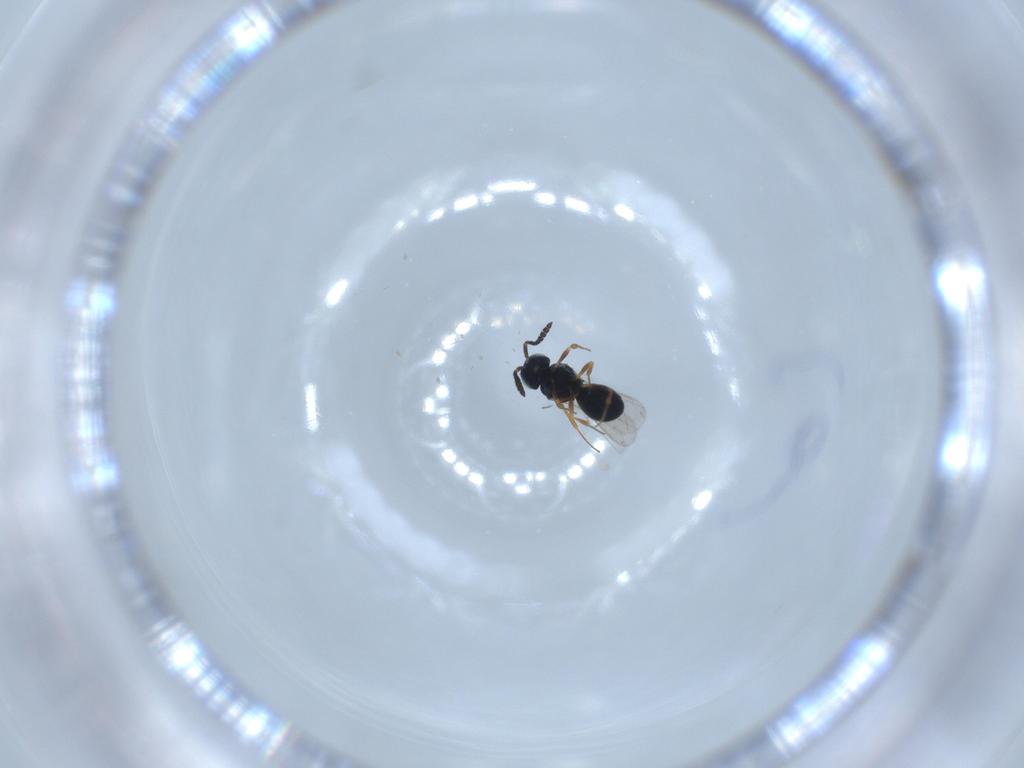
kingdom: Animalia
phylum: Arthropoda
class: Insecta
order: Hymenoptera
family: Scelionidae
